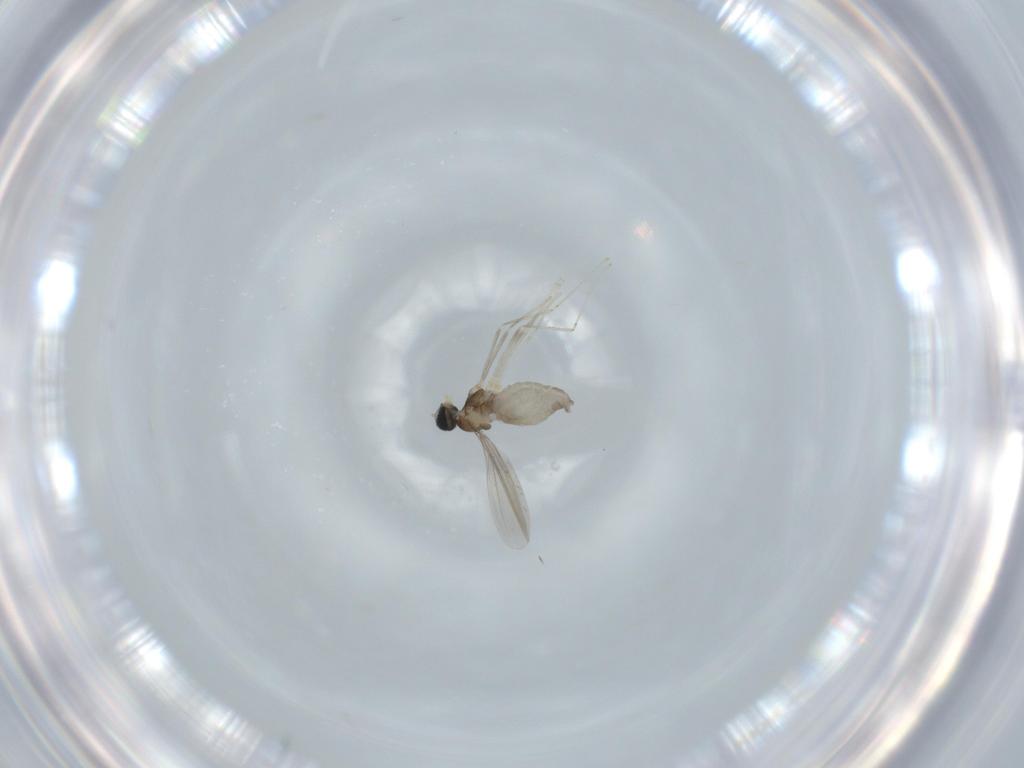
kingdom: Animalia
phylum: Arthropoda
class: Insecta
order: Diptera
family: Cecidomyiidae
